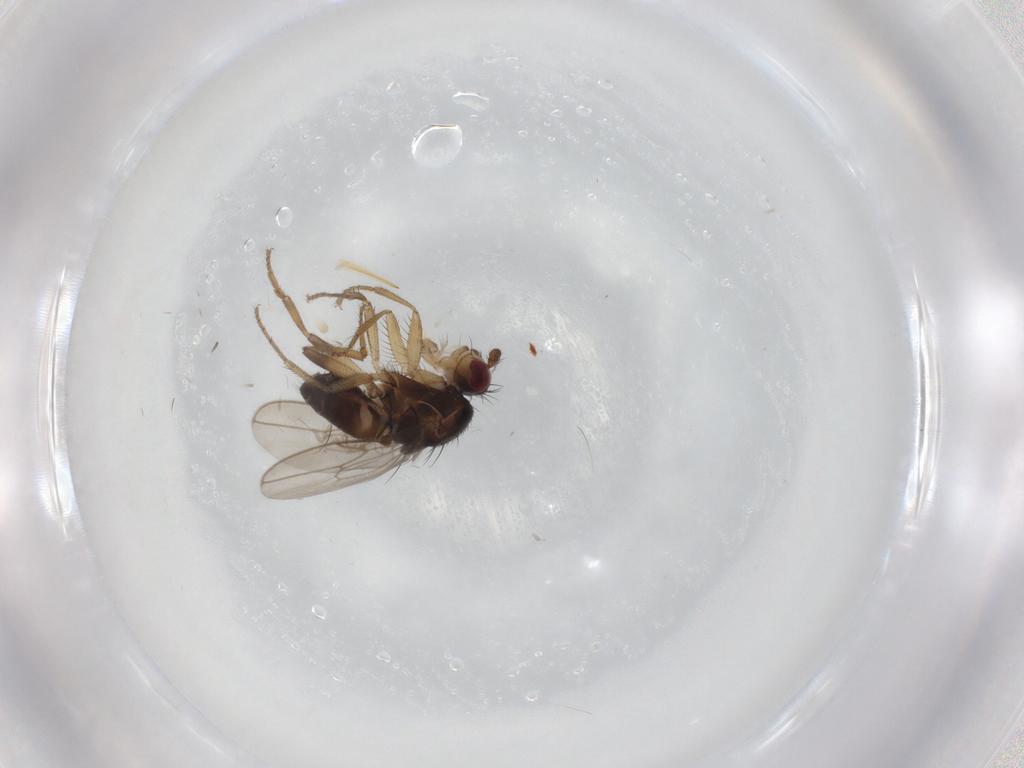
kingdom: Animalia
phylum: Arthropoda
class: Insecta
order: Diptera
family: Sphaeroceridae
